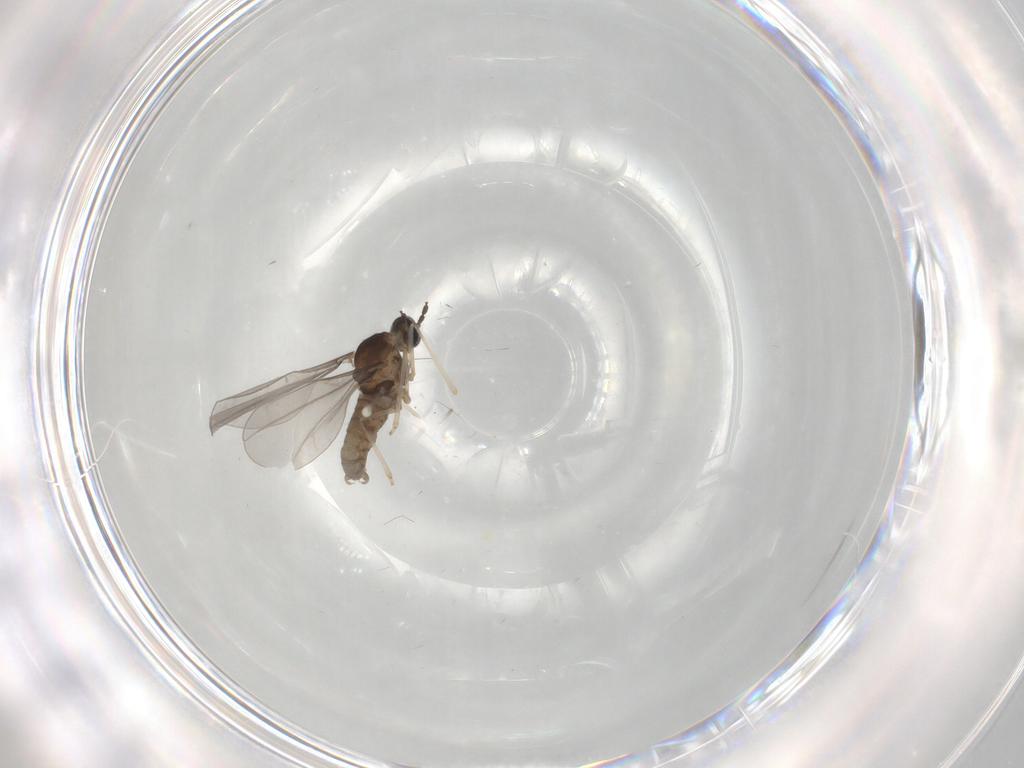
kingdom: Animalia
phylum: Arthropoda
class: Insecta
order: Diptera
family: Cecidomyiidae
